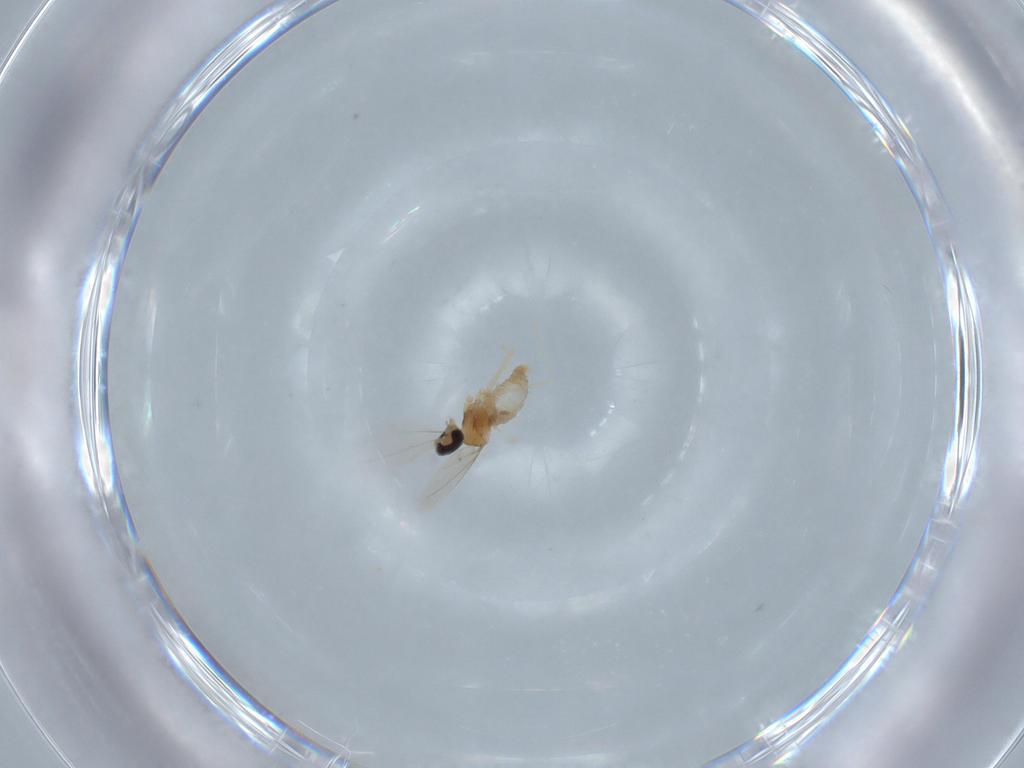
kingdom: Animalia
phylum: Arthropoda
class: Insecta
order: Diptera
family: Cecidomyiidae
